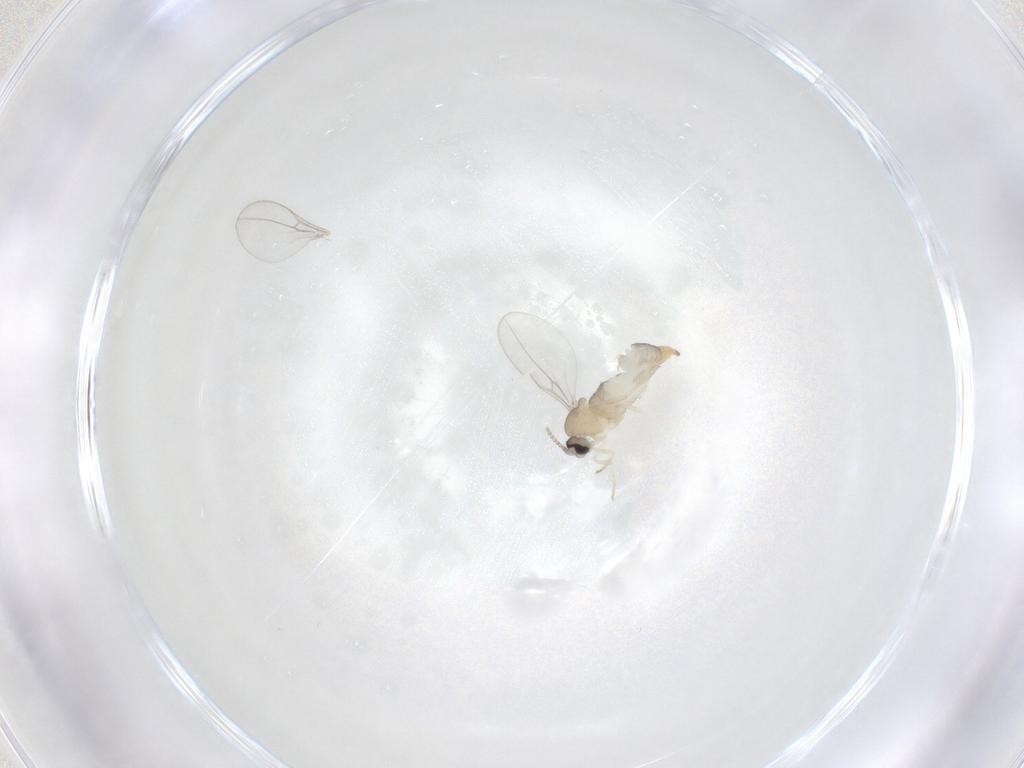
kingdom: Animalia
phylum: Arthropoda
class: Insecta
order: Diptera
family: Cecidomyiidae
